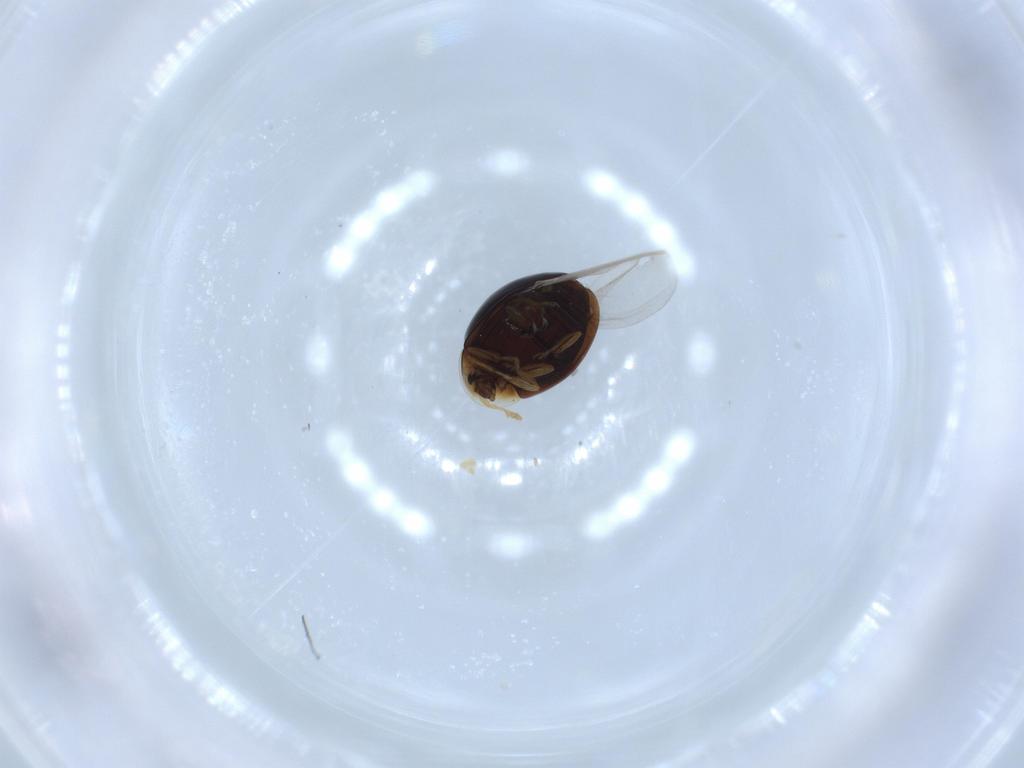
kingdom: Animalia
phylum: Arthropoda
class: Insecta
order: Coleoptera
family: Corylophidae
